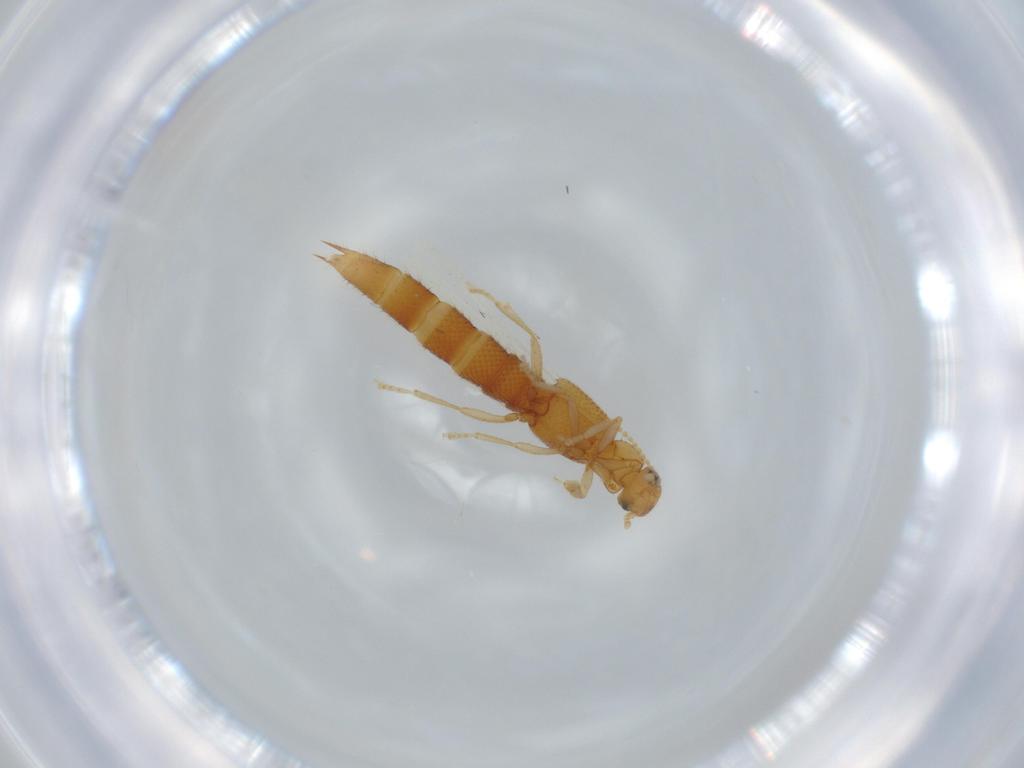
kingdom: Animalia
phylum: Arthropoda
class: Insecta
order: Coleoptera
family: Staphylinidae
